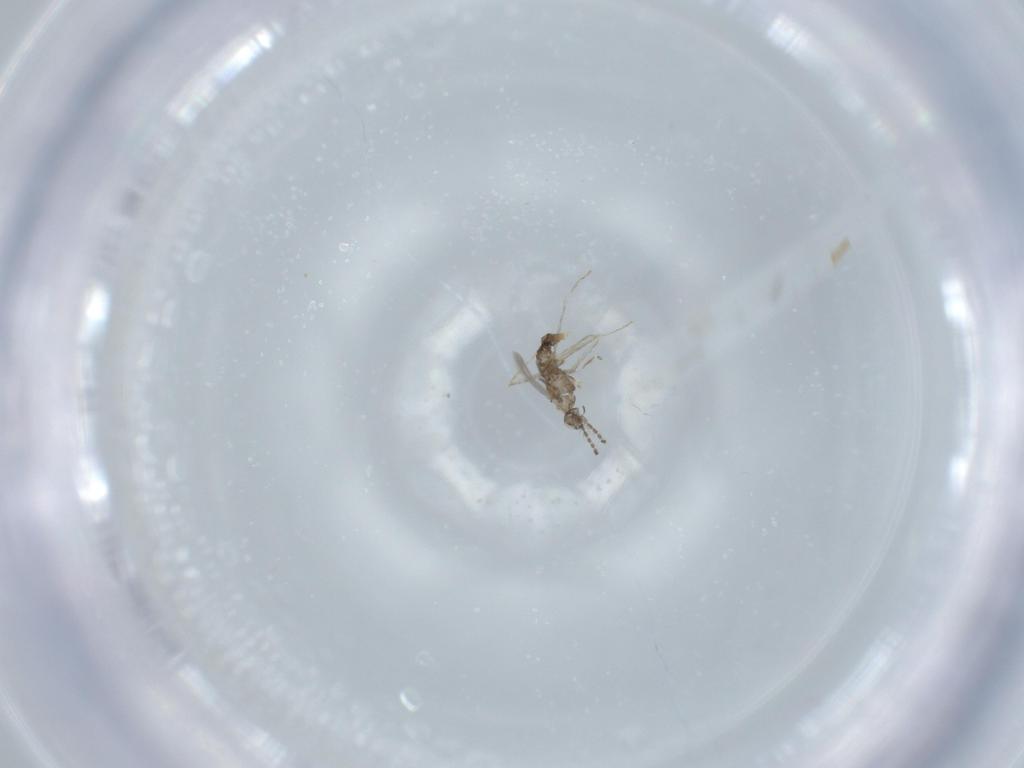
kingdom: Animalia
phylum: Arthropoda
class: Insecta
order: Diptera
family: Cecidomyiidae
